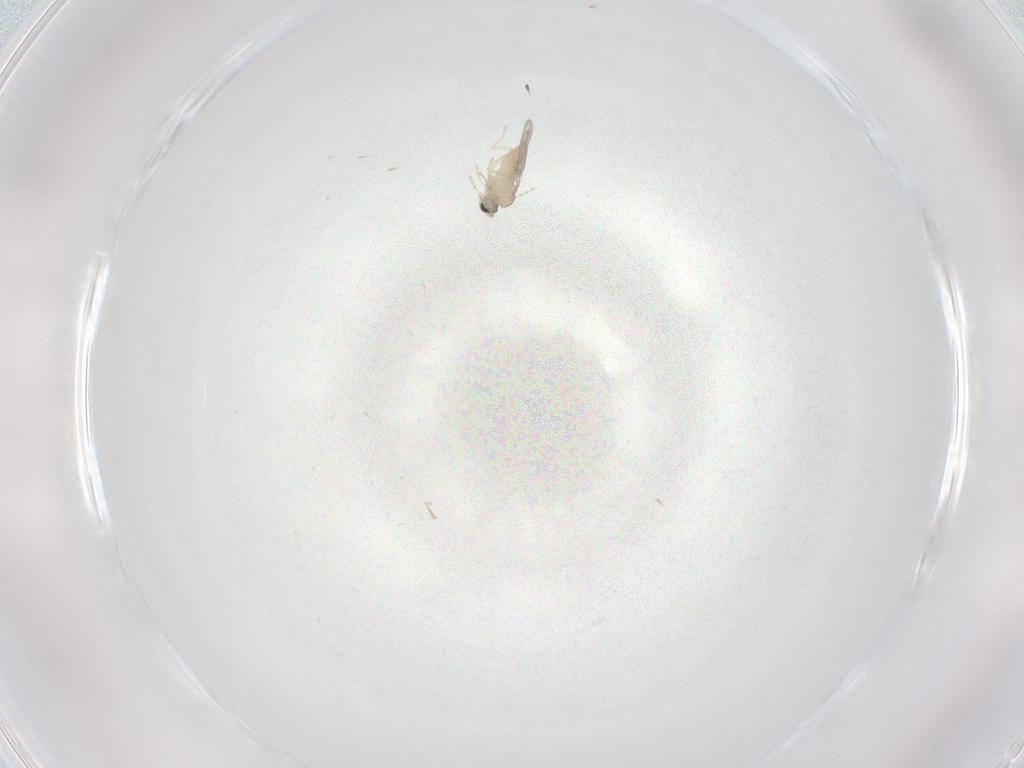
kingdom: Animalia
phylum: Arthropoda
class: Insecta
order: Diptera
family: Cecidomyiidae
